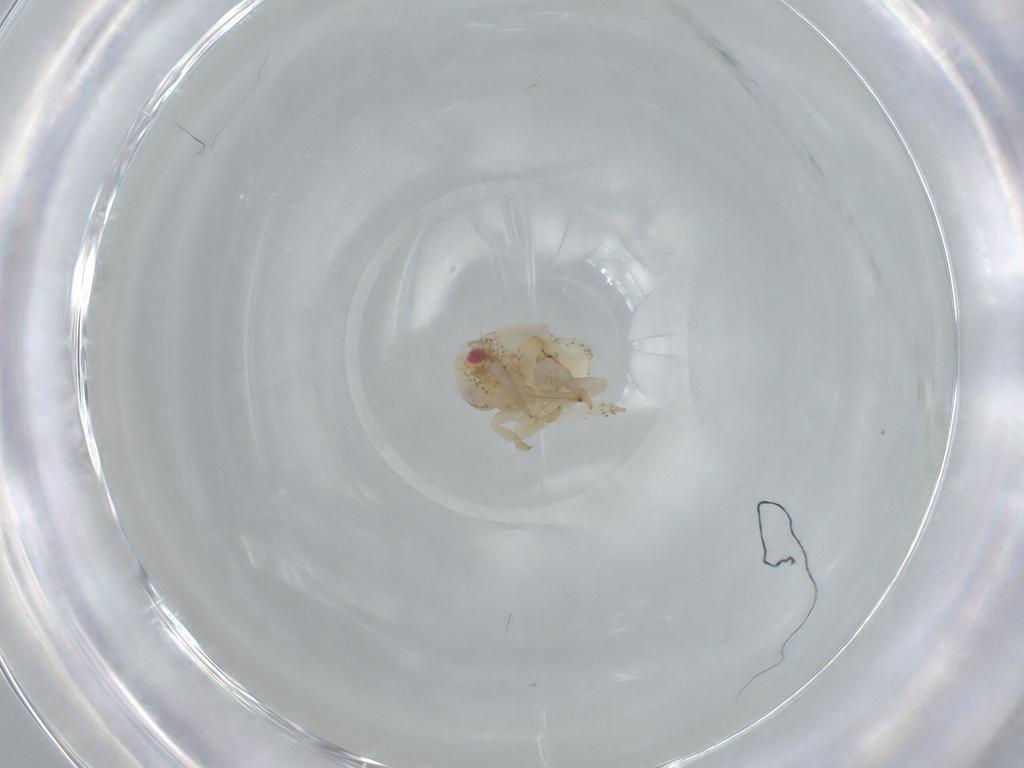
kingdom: Animalia
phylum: Arthropoda
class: Insecta
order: Hemiptera
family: Acanaloniidae
